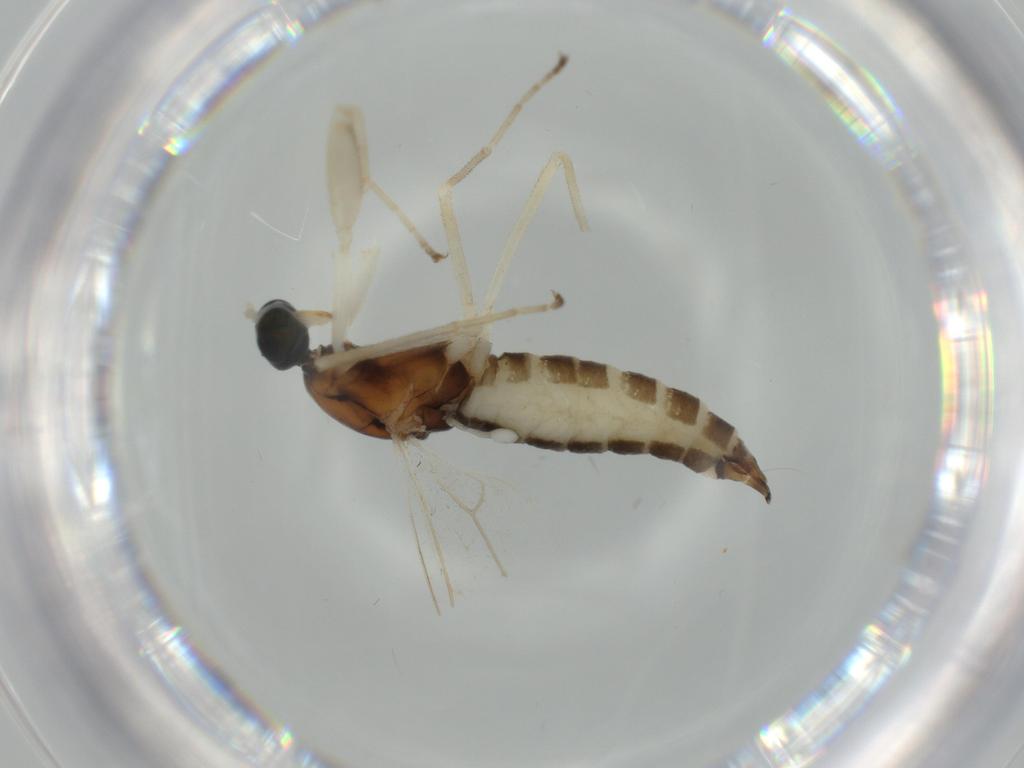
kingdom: Animalia
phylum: Arthropoda
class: Insecta
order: Diptera
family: Empididae
